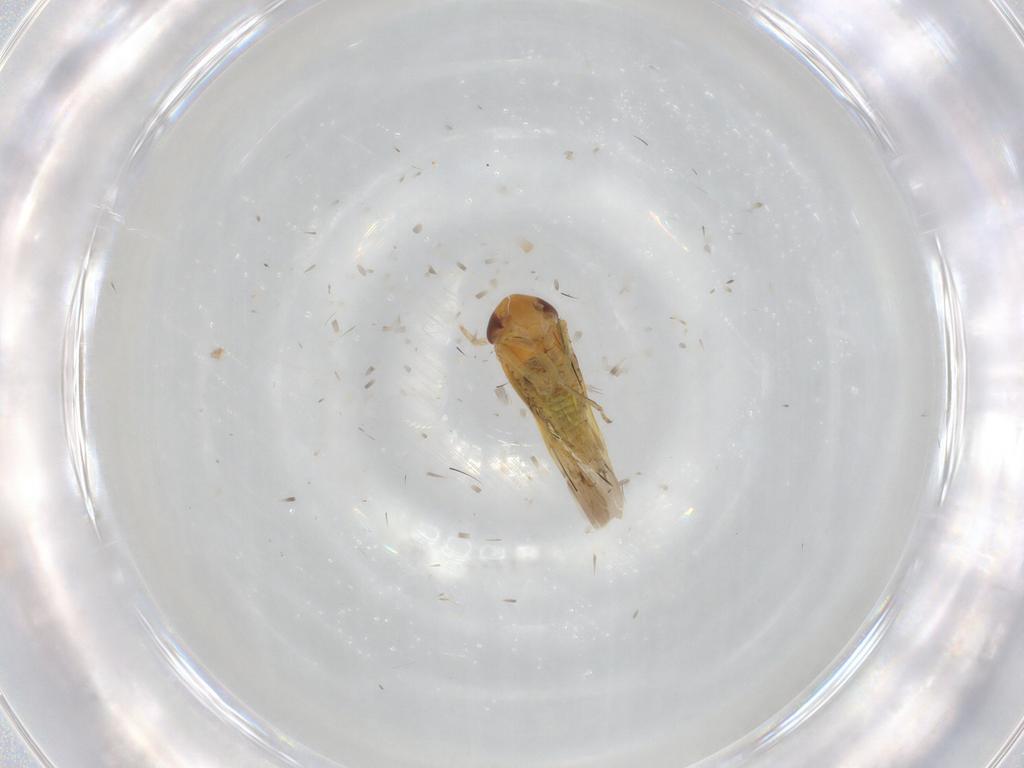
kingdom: Animalia
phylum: Arthropoda
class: Insecta
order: Hemiptera
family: Cicadellidae
